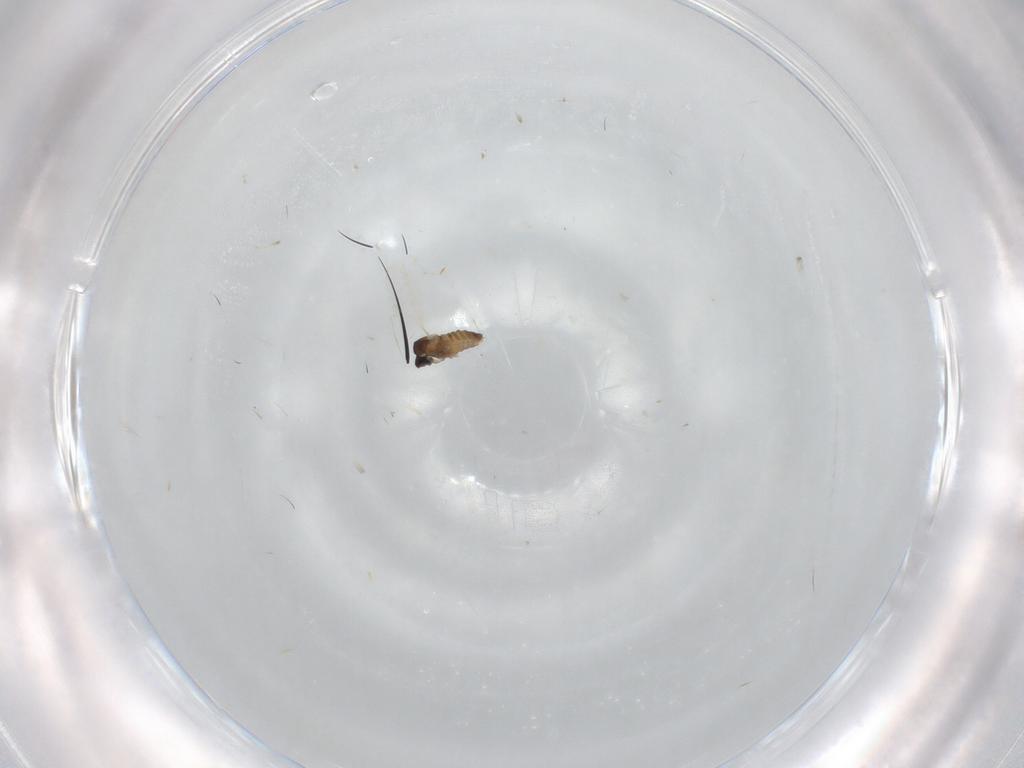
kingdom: Animalia
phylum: Arthropoda
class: Insecta
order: Diptera
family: Cecidomyiidae
